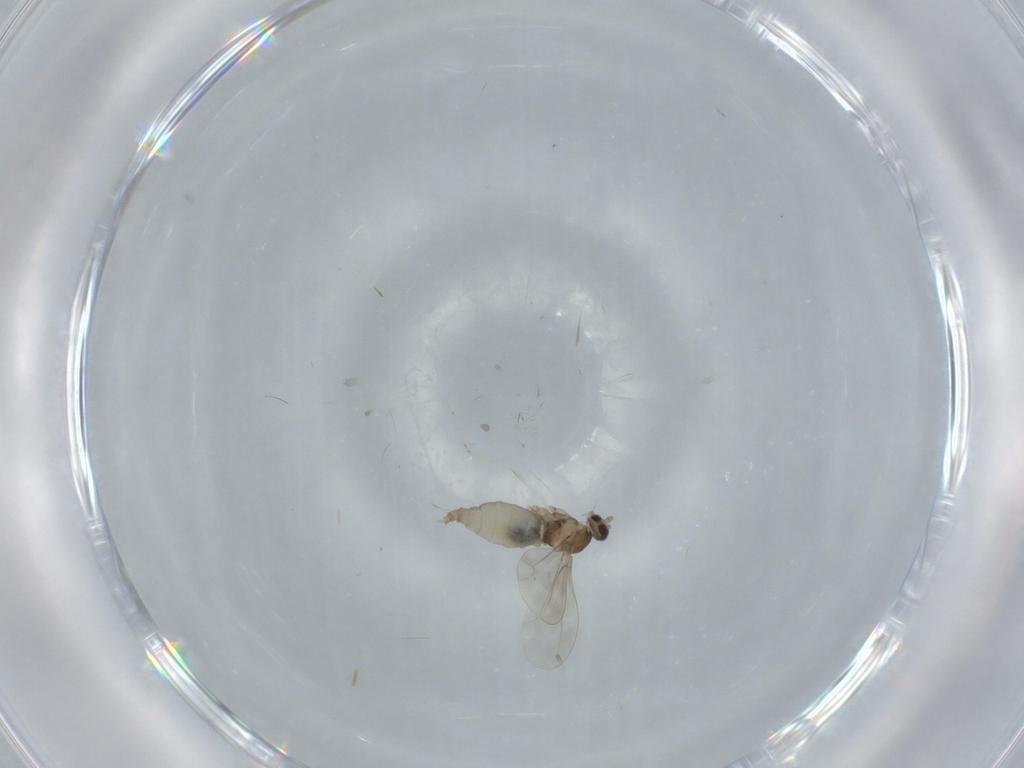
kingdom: Animalia
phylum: Arthropoda
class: Insecta
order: Diptera
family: Cecidomyiidae
